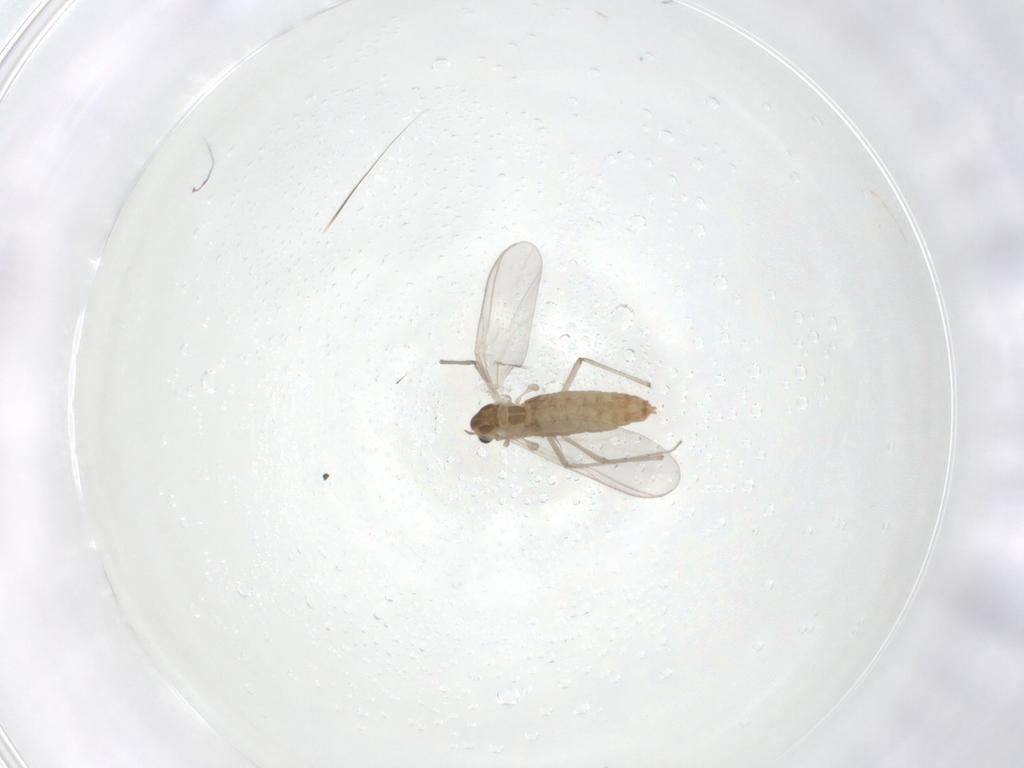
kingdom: Animalia
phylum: Arthropoda
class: Insecta
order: Diptera
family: Chironomidae
